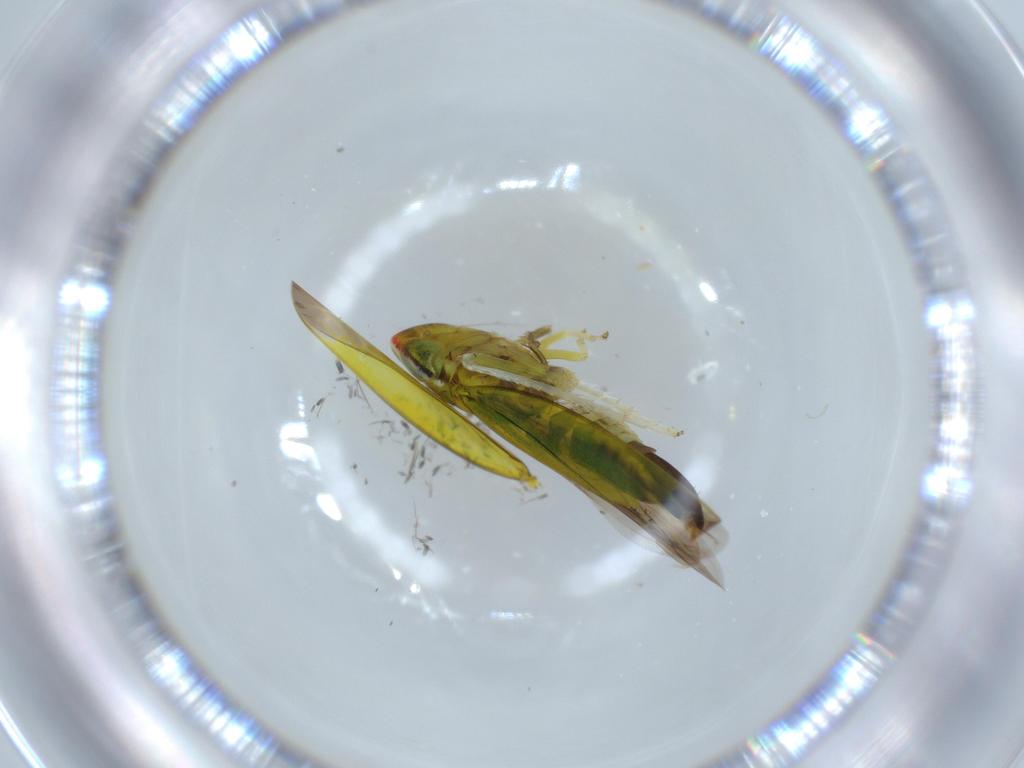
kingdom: Animalia
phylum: Arthropoda
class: Insecta
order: Hemiptera
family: Cicadellidae
